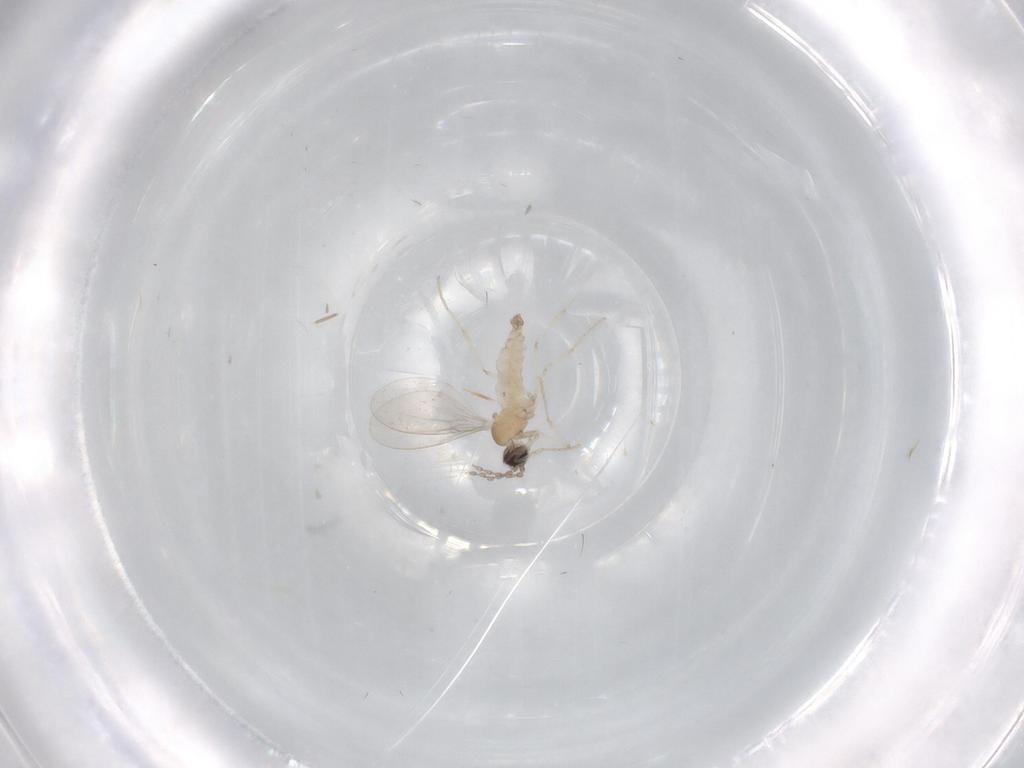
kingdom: Animalia
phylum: Arthropoda
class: Insecta
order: Diptera
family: Cecidomyiidae
